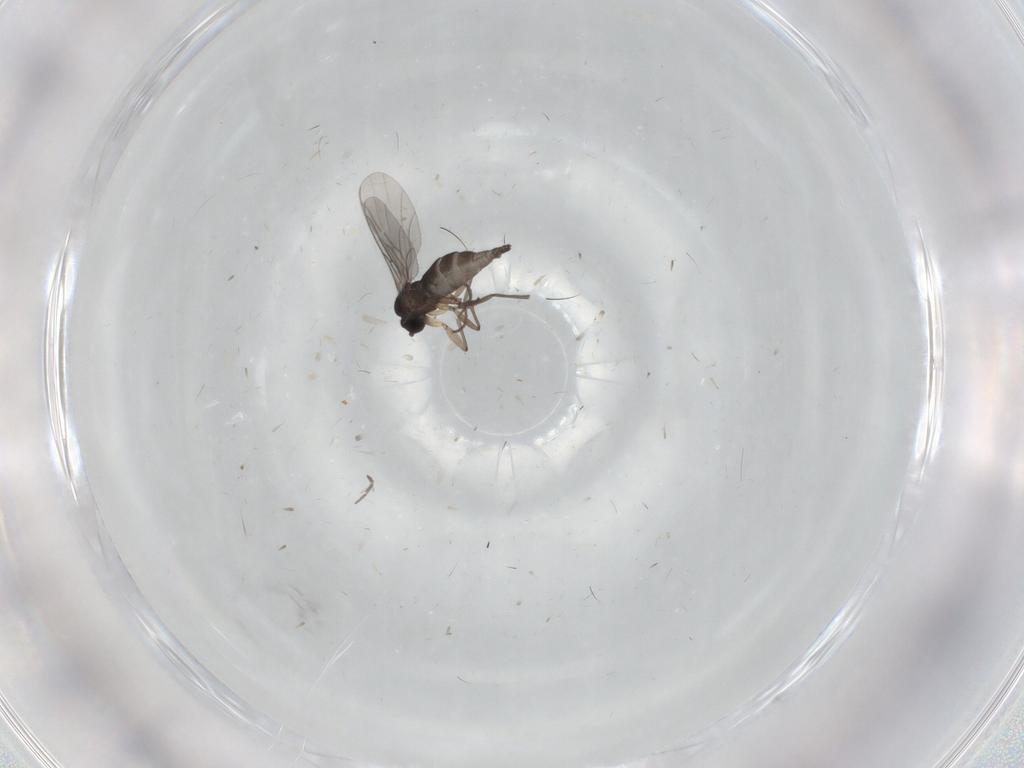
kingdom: Animalia
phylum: Arthropoda
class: Insecta
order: Diptera
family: Sciaridae
